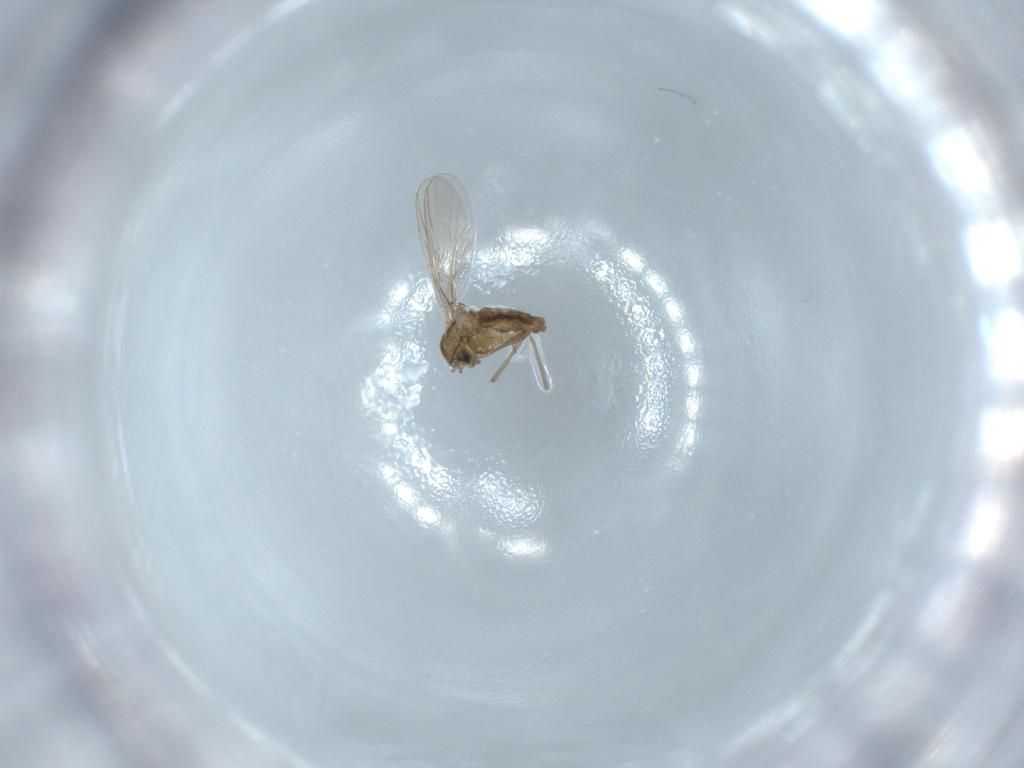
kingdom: Animalia
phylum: Arthropoda
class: Insecta
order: Diptera
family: Chironomidae
